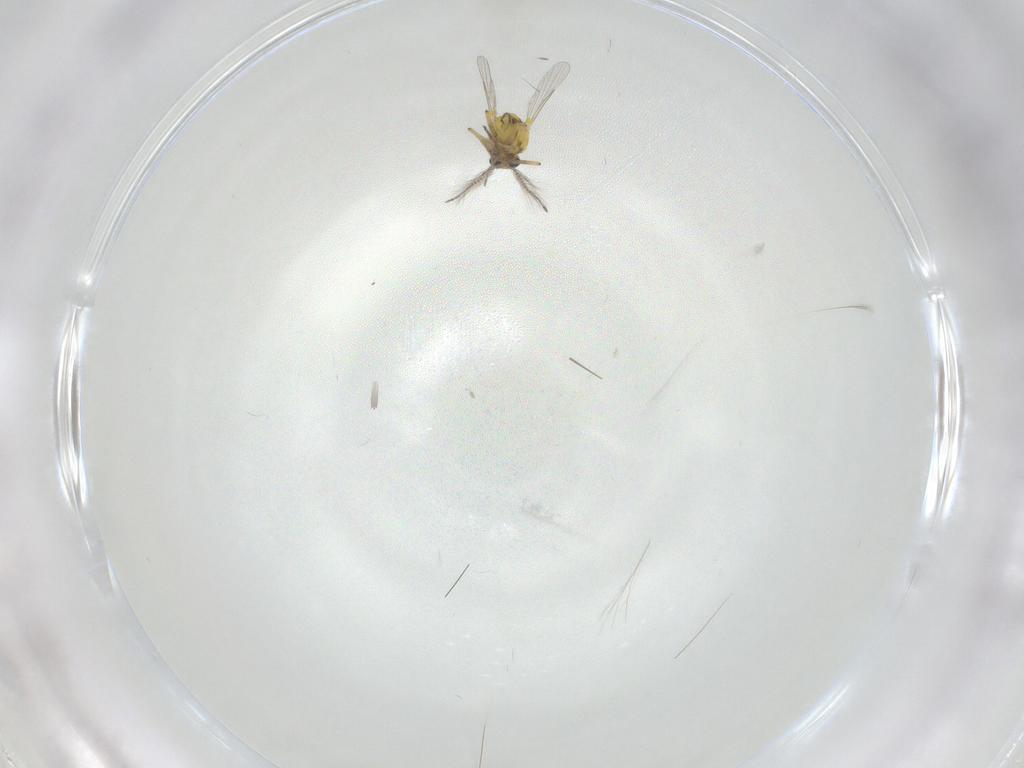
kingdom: Animalia
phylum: Arthropoda
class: Insecta
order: Diptera
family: Ceratopogonidae
